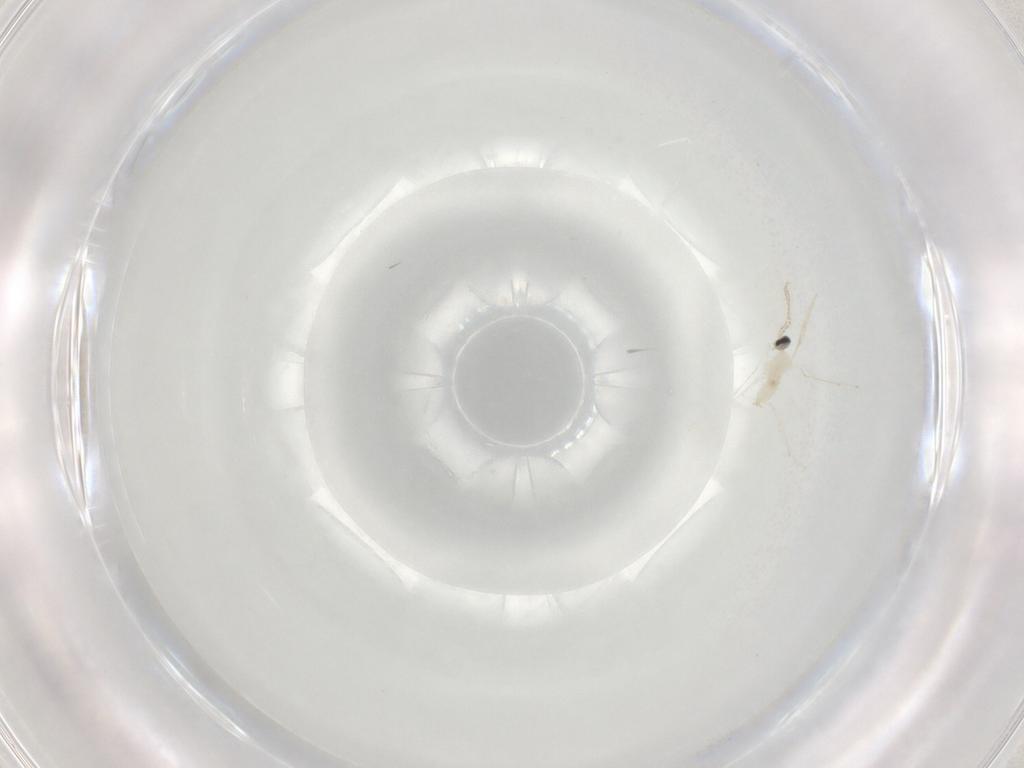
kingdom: Animalia
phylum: Arthropoda
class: Insecta
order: Diptera
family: Cecidomyiidae
